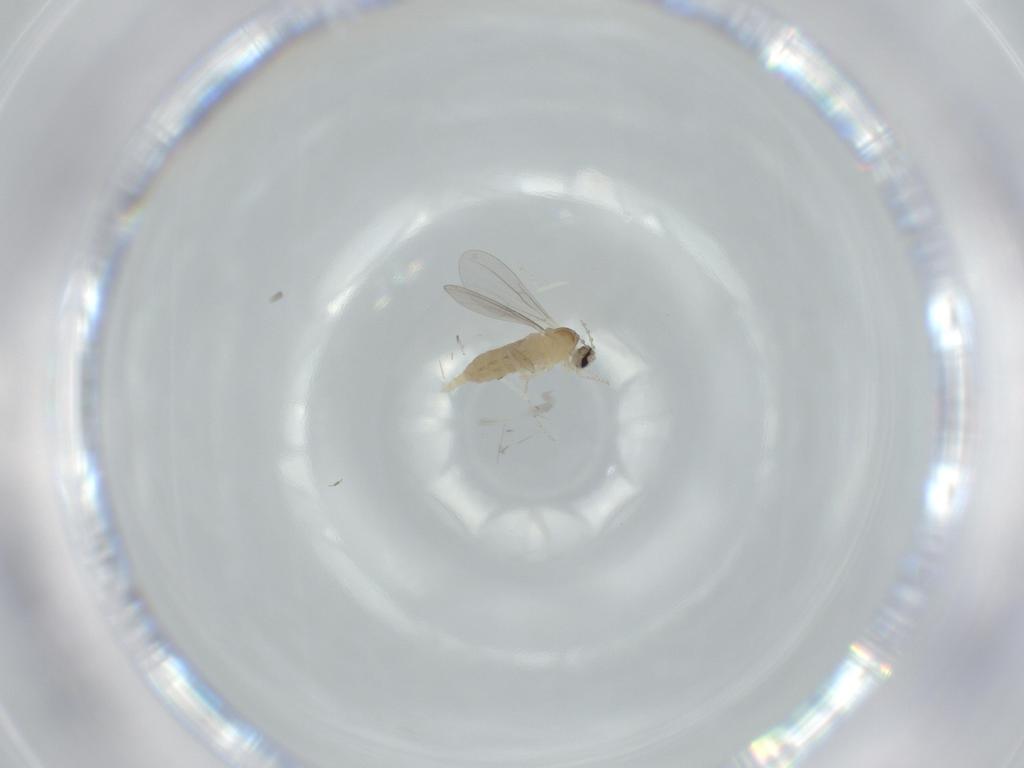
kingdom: Animalia
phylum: Arthropoda
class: Insecta
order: Diptera
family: Cecidomyiidae
